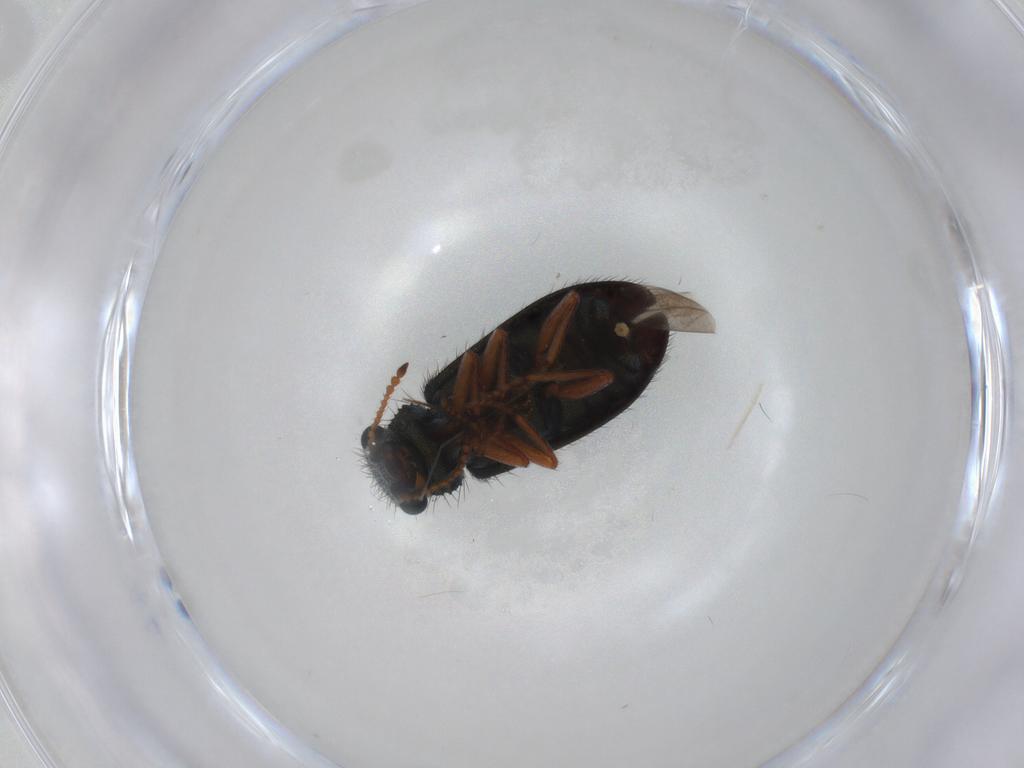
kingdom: Animalia
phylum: Arthropoda
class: Insecta
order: Coleoptera
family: Melyridae
